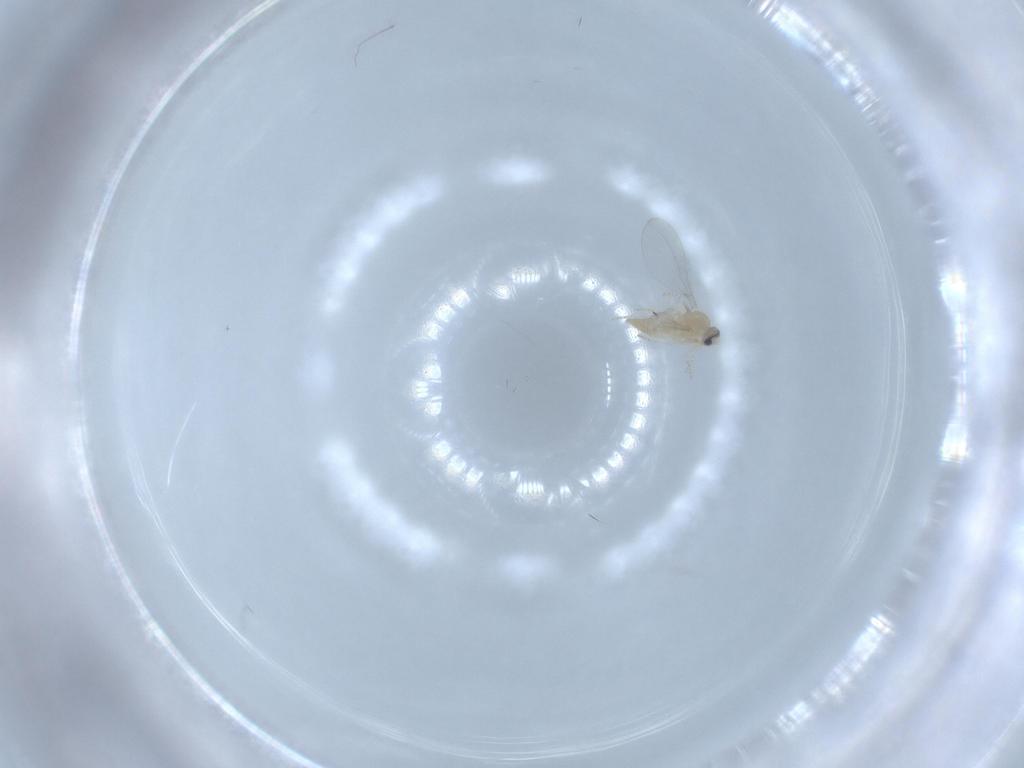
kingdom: Animalia
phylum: Arthropoda
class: Insecta
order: Diptera
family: Cecidomyiidae
